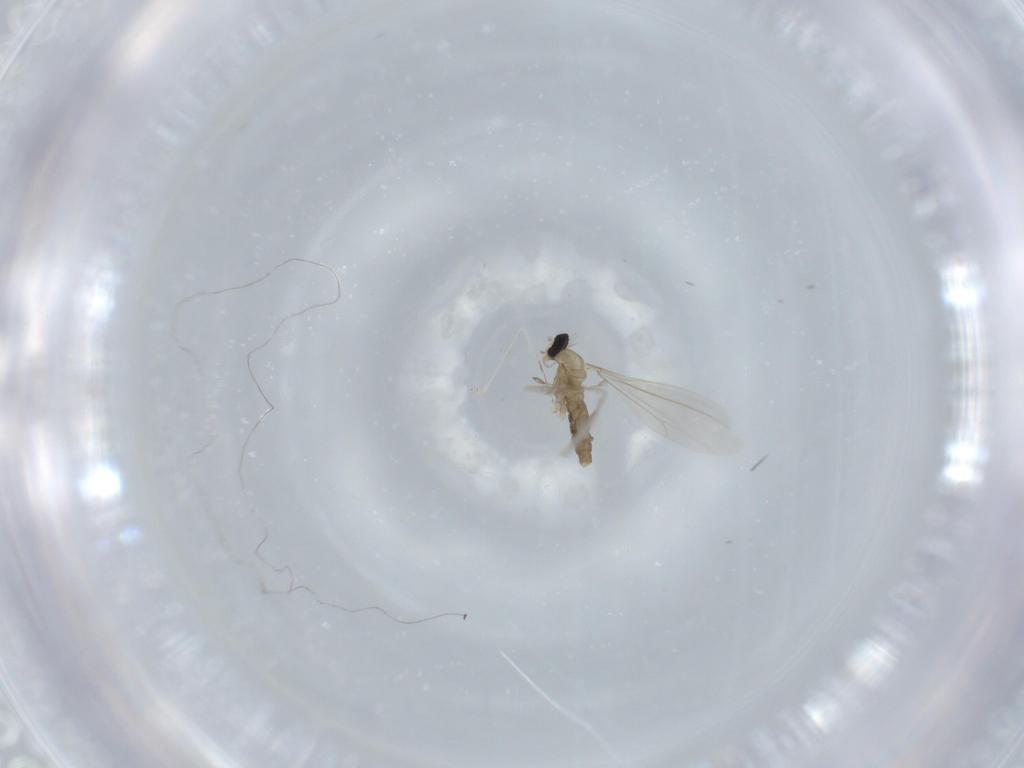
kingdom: Animalia
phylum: Arthropoda
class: Insecta
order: Diptera
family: Cecidomyiidae
